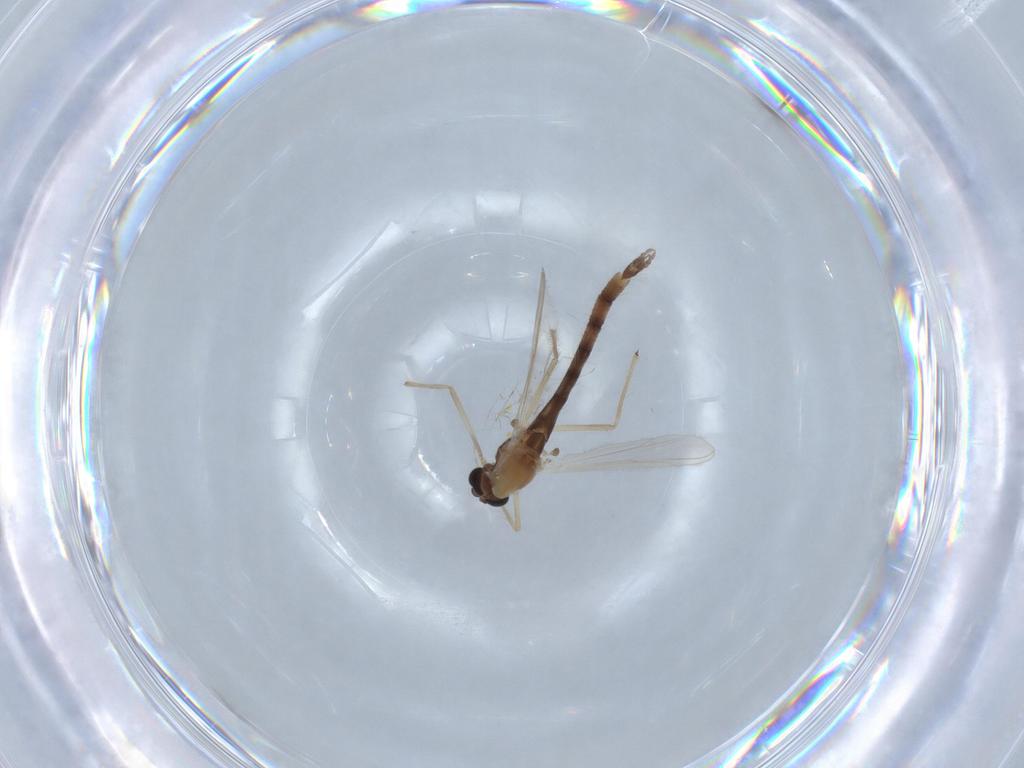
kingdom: Animalia
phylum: Arthropoda
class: Insecta
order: Diptera
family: Chironomidae
